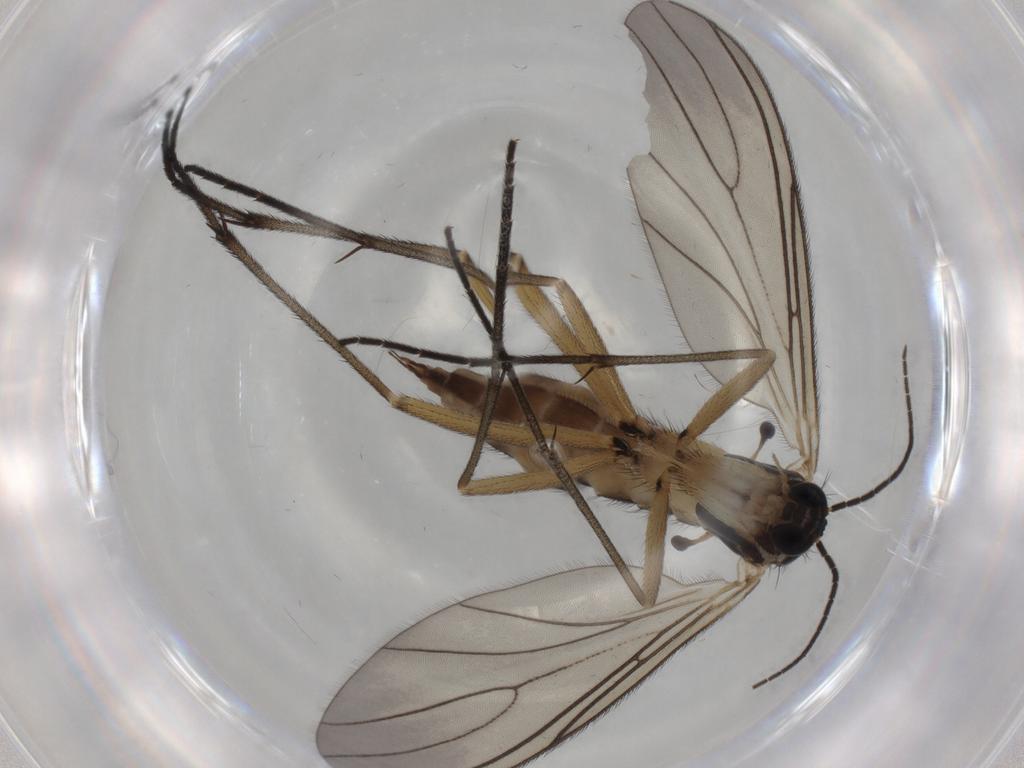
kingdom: Animalia
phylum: Arthropoda
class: Insecta
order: Diptera
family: Sciaridae
